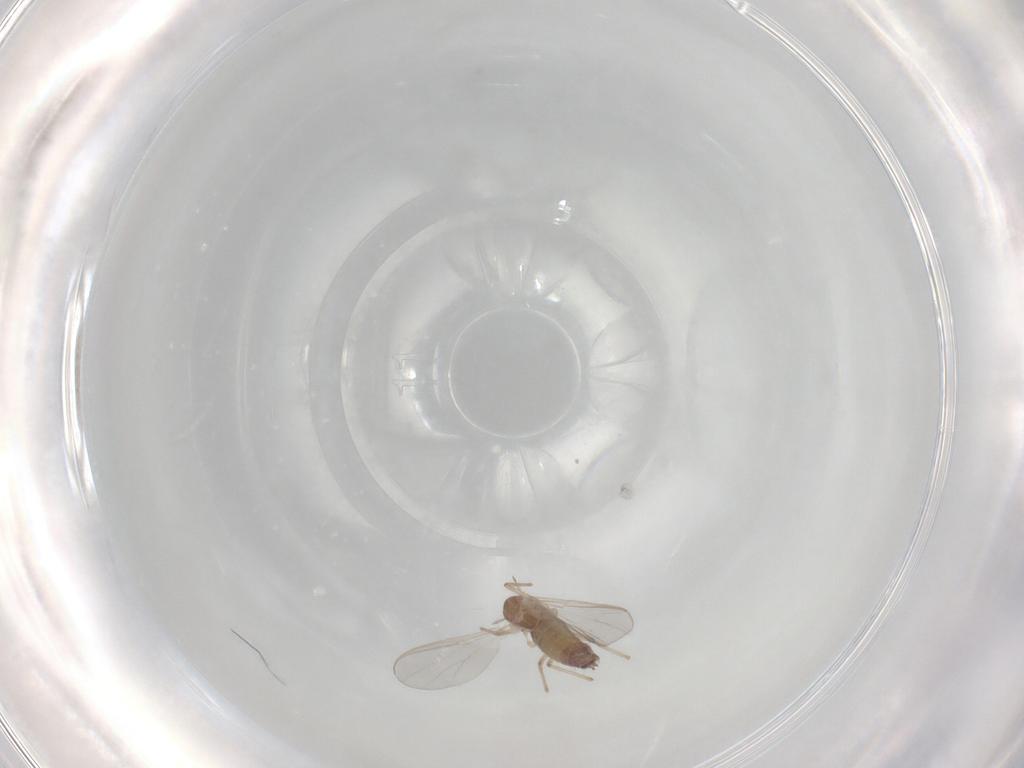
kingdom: Animalia
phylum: Arthropoda
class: Insecta
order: Diptera
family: Chironomidae
